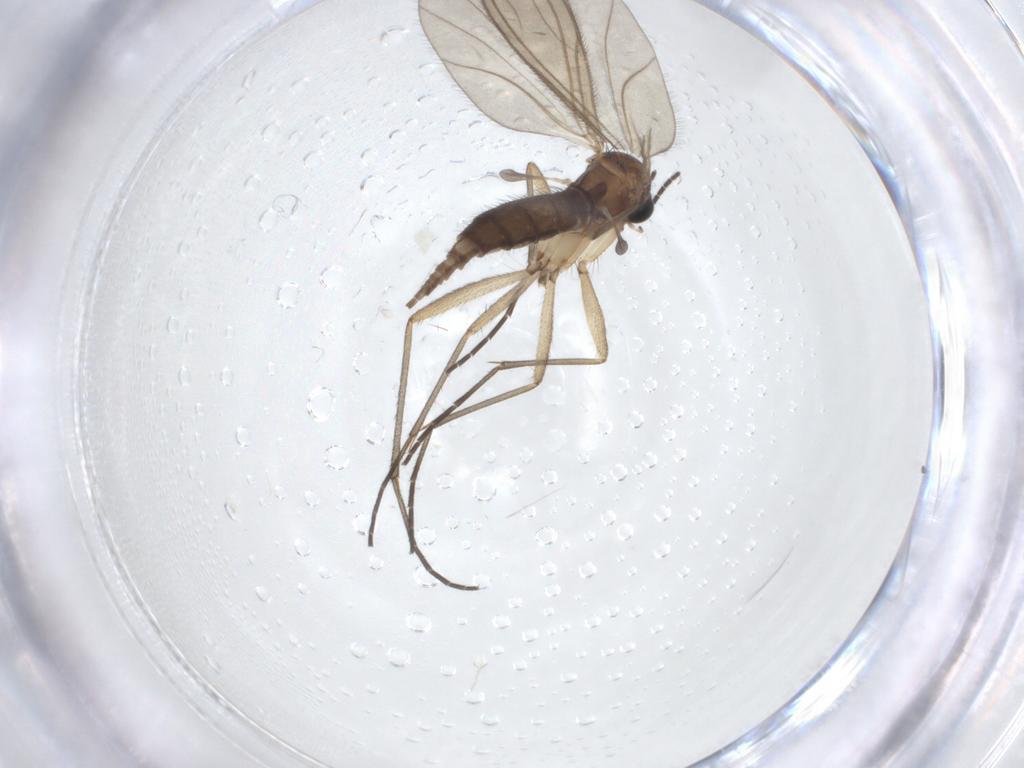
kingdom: Animalia
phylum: Arthropoda
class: Insecta
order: Diptera
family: Sciaridae
